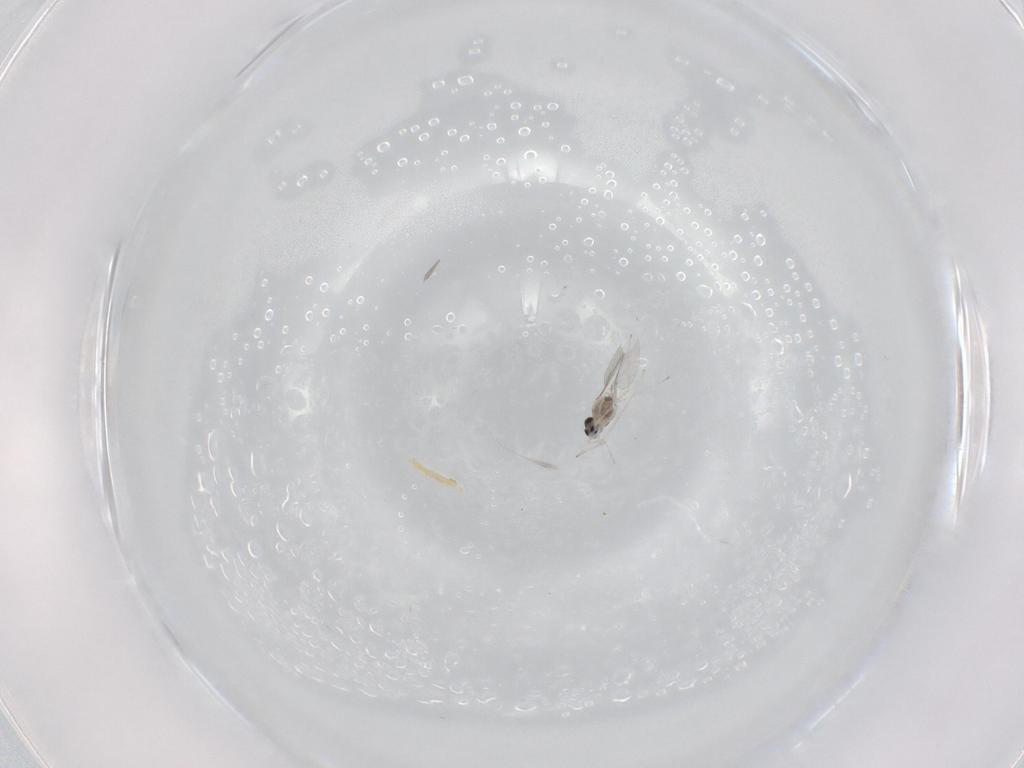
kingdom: Animalia
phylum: Arthropoda
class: Insecta
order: Diptera
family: Cecidomyiidae
